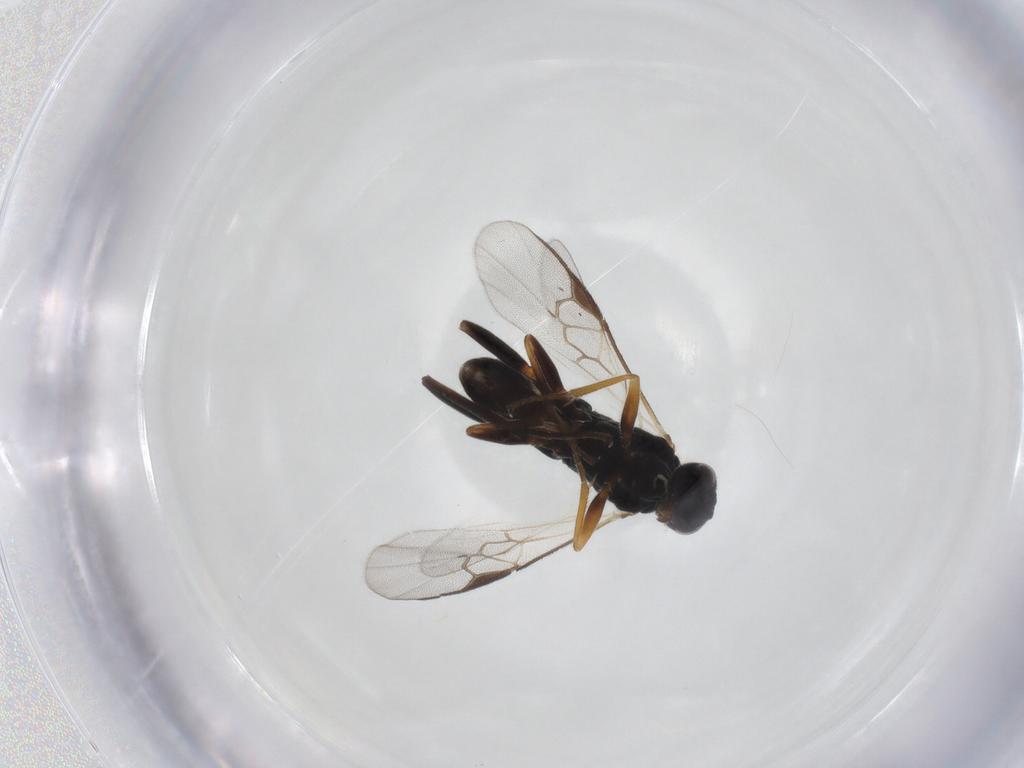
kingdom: Animalia
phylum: Arthropoda
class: Insecta
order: Hymenoptera
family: Braconidae
